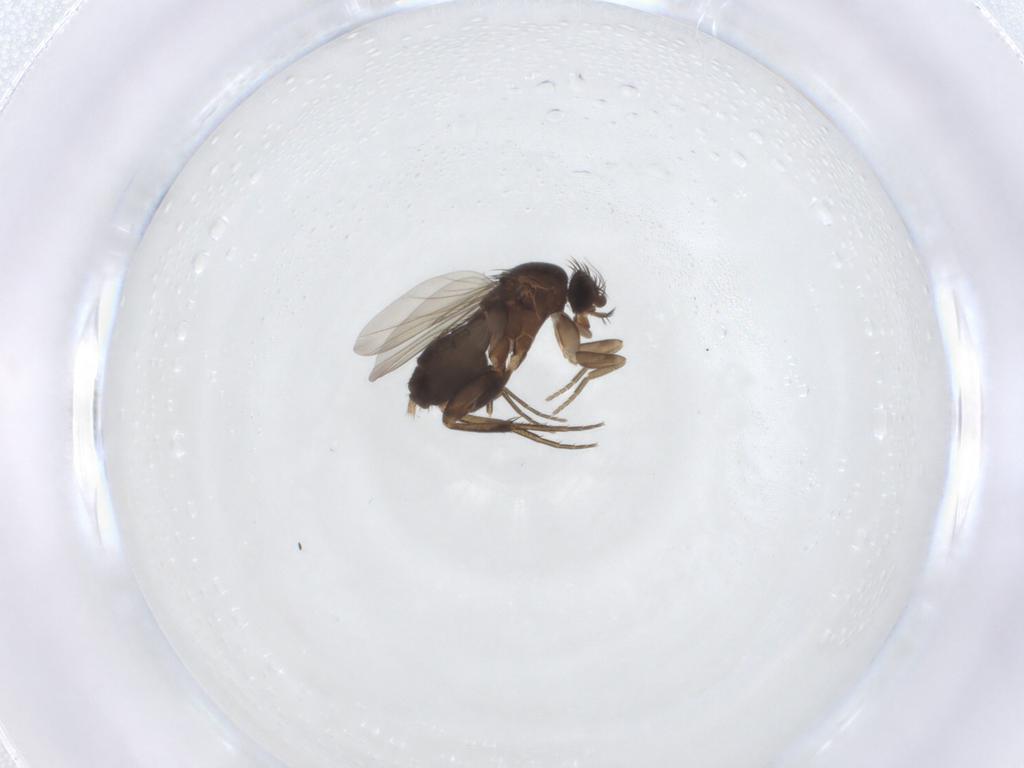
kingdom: Animalia
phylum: Arthropoda
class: Insecta
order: Diptera
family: Phoridae
